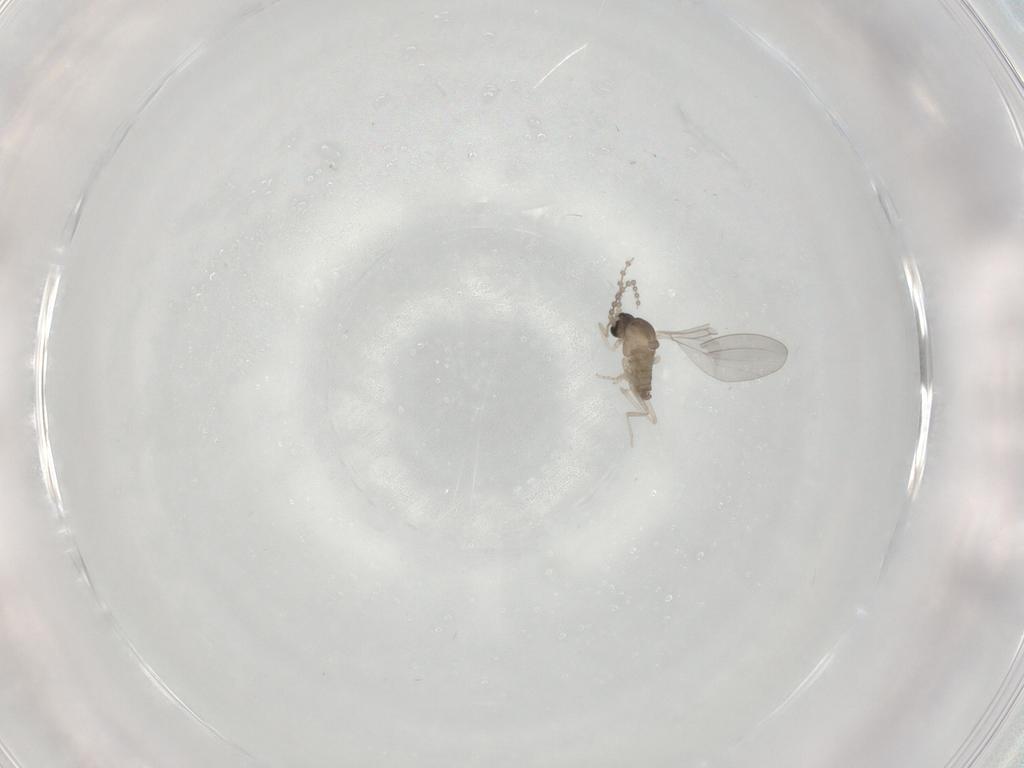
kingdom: Animalia
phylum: Arthropoda
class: Insecta
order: Diptera
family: Cecidomyiidae
